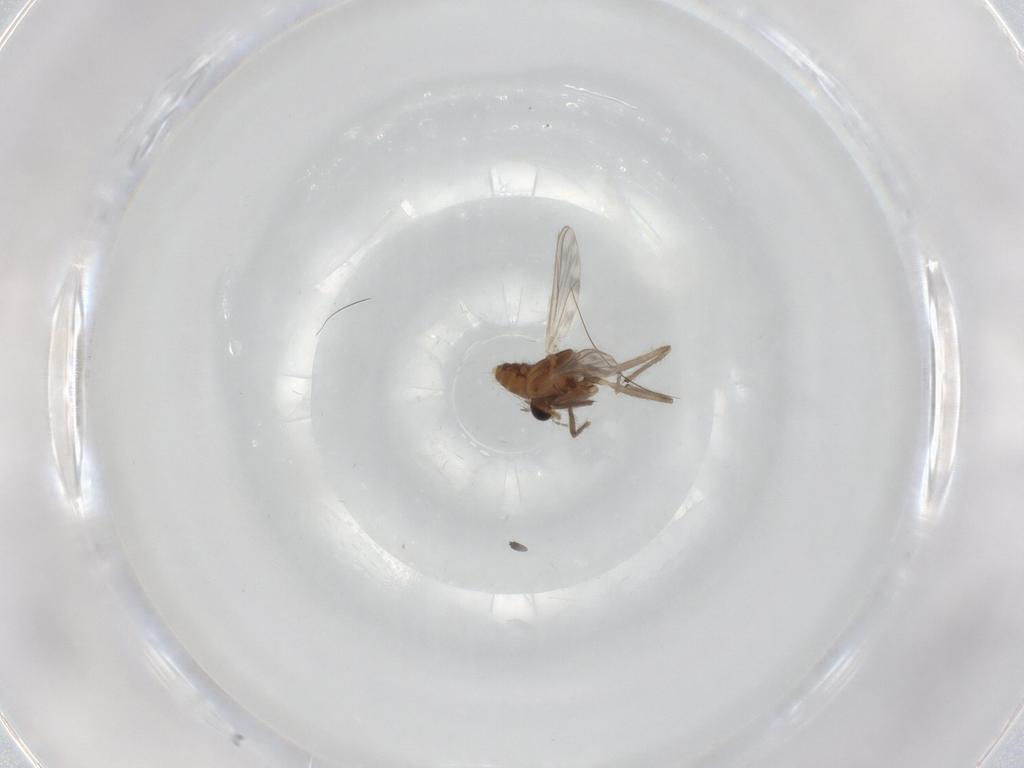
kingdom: Animalia
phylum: Arthropoda
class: Insecta
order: Diptera
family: Chironomidae
